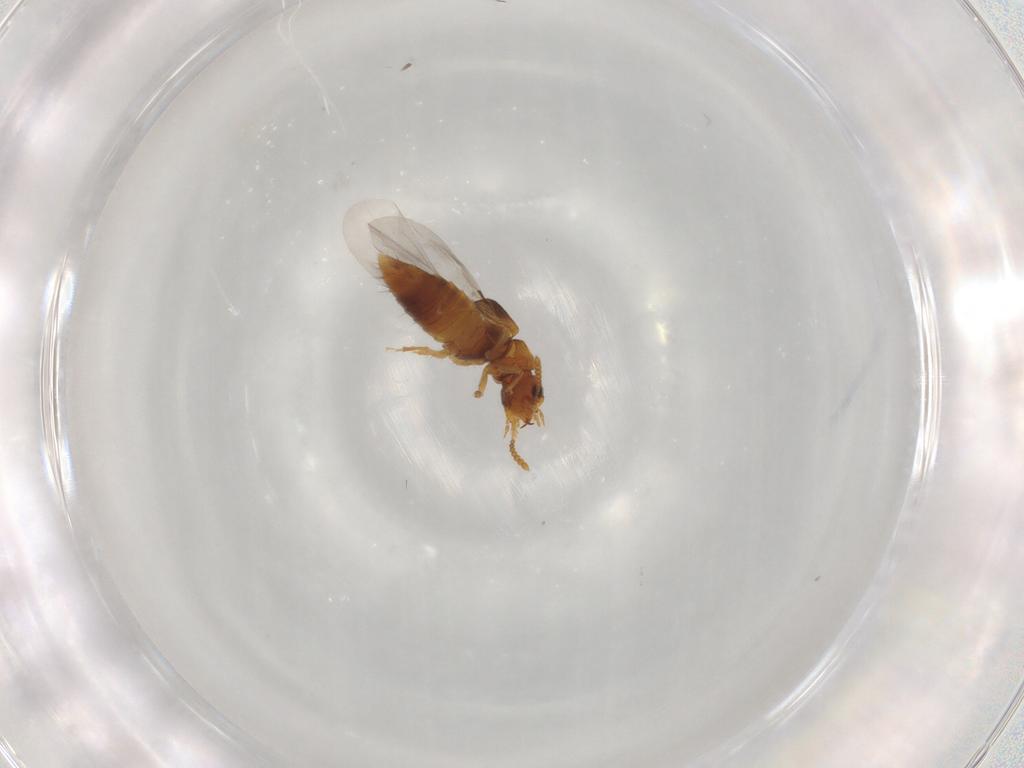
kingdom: Animalia
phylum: Arthropoda
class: Insecta
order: Coleoptera
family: Staphylinidae
